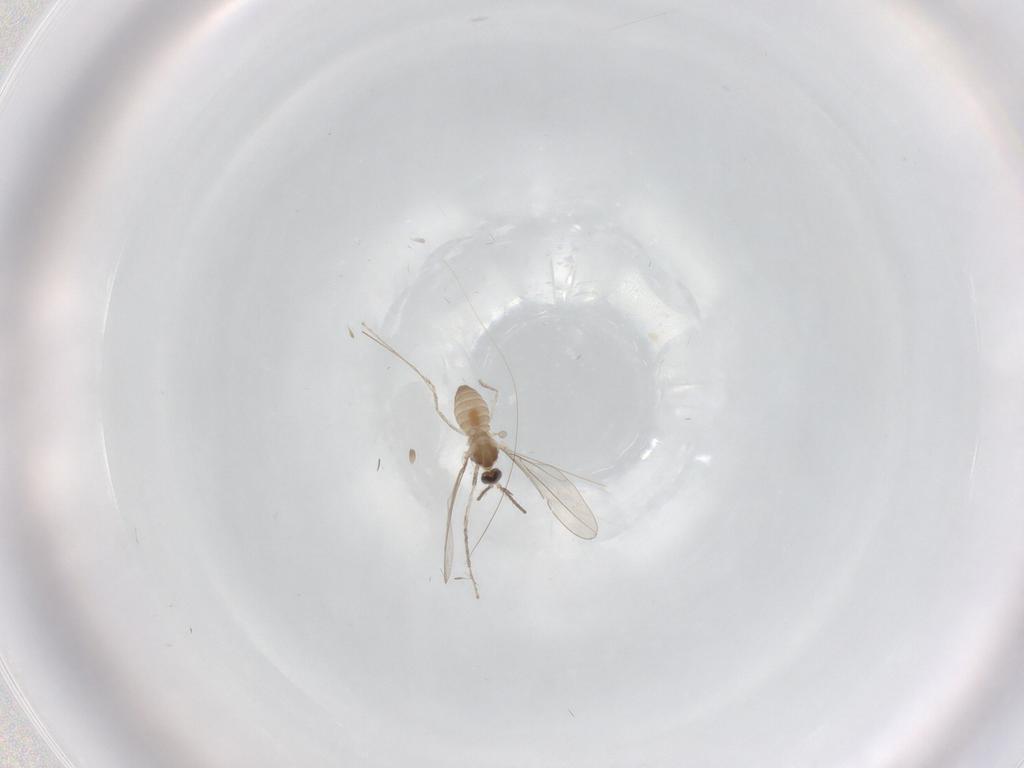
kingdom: Animalia
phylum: Arthropoda
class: Insecta
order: Diptera
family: Cecidomyiidae
